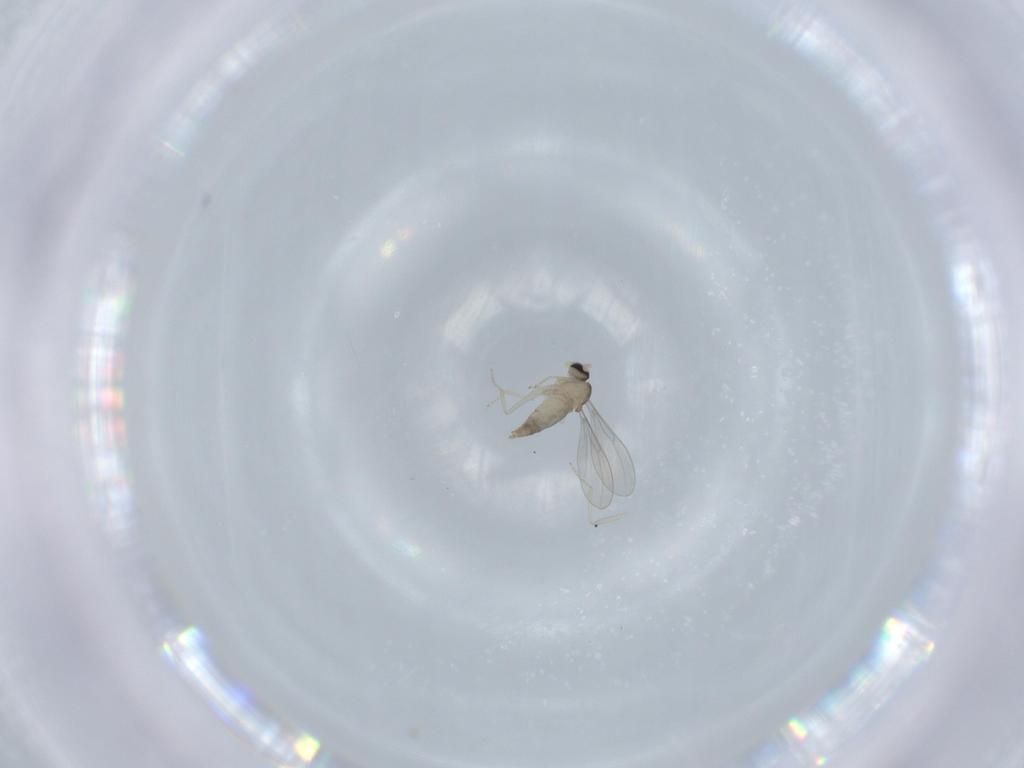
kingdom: Animalia
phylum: Arthropoda
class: Insecta
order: Diptera
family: Cecidomyiidae
